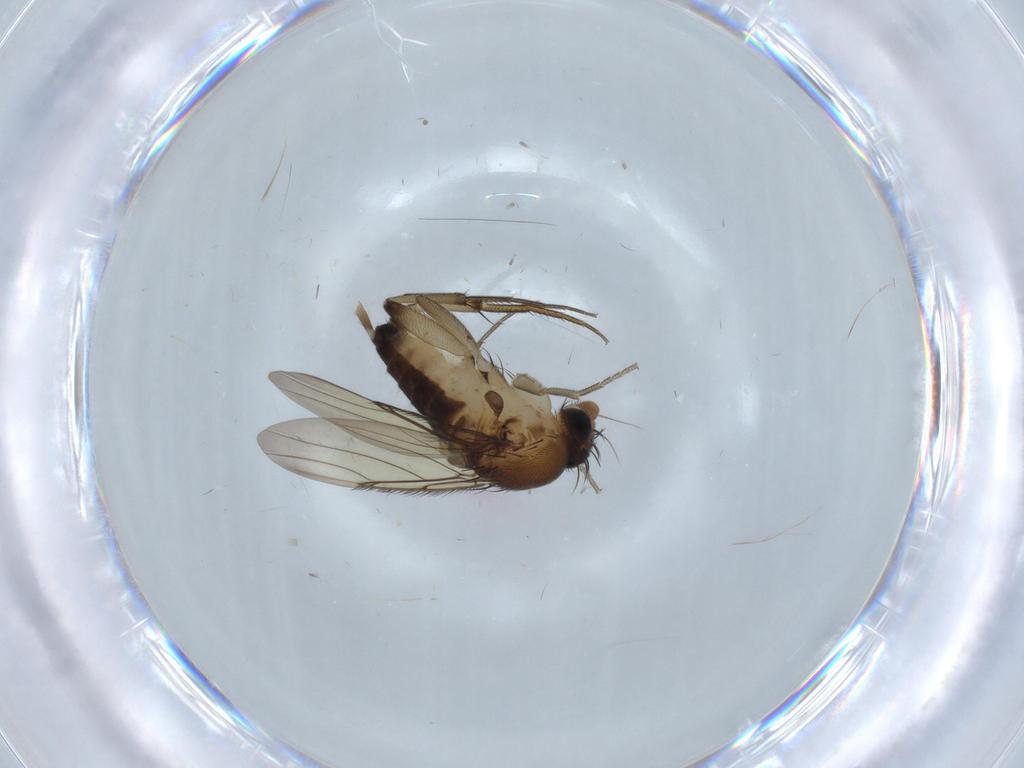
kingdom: Animalia
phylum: Arthropoda
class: Insecta
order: Diptera
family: Phoridae
